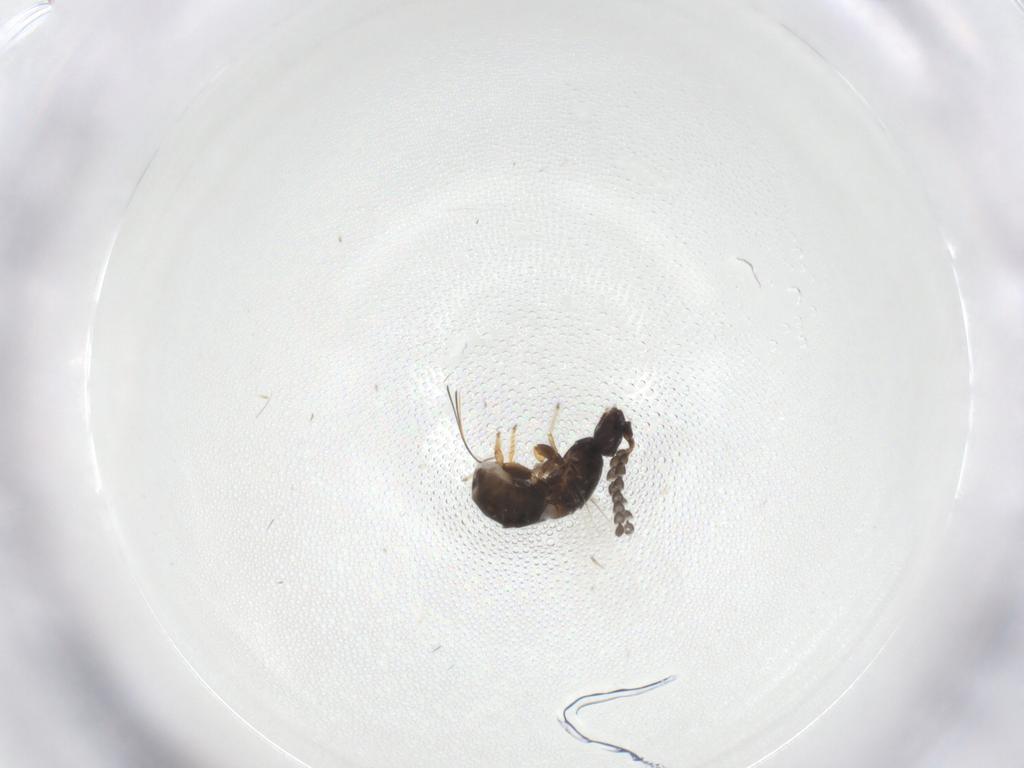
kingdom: Animalia
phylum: Arthropoda
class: Insecta
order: Hymenoptera
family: Agaonidae
